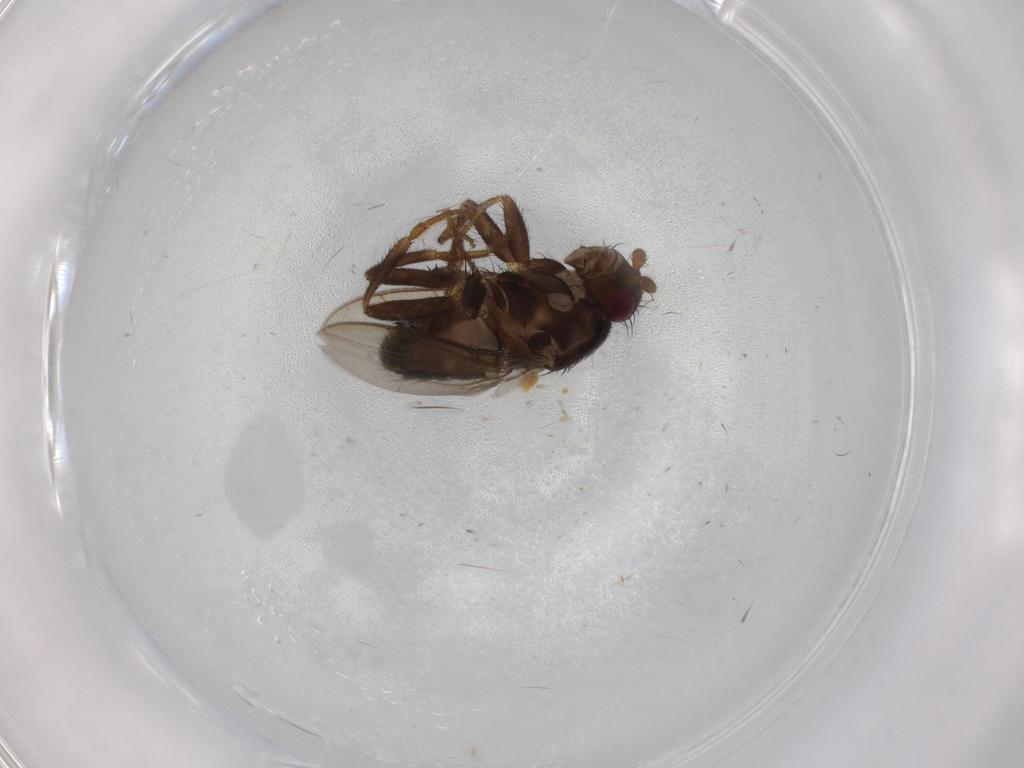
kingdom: Animalia
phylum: Arthropoda
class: Insecta
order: Diptera
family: Sphaeroceridae
